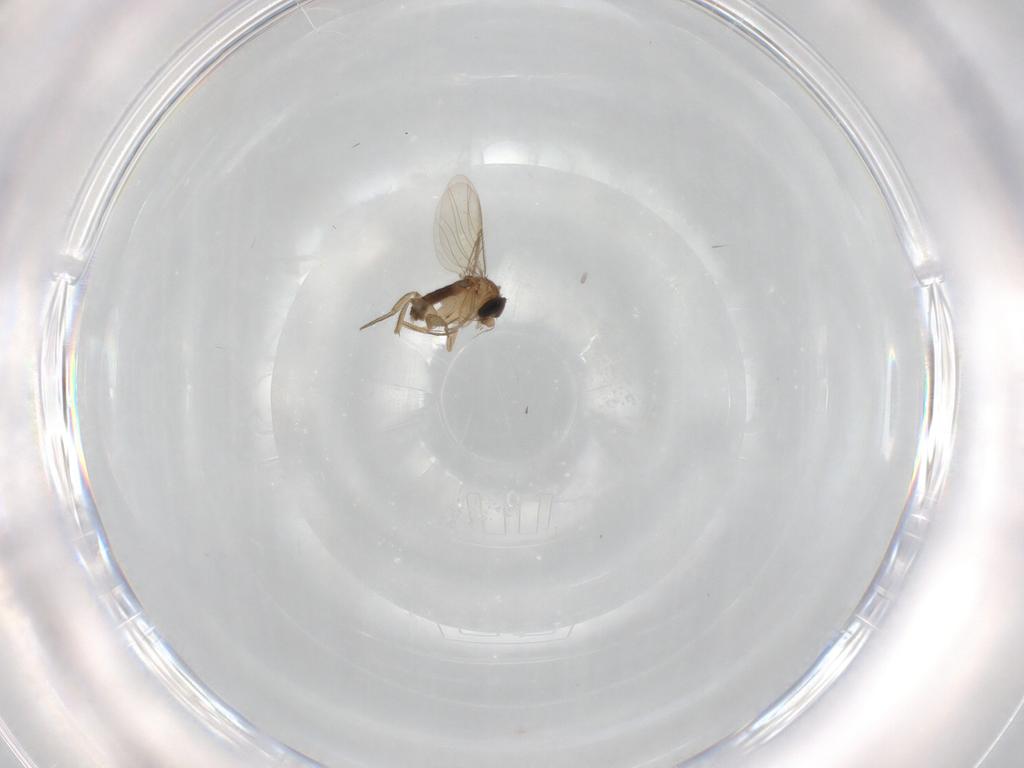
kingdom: Animalia
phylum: Arthropoda
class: Insecta
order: Diptera
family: Phoridae
